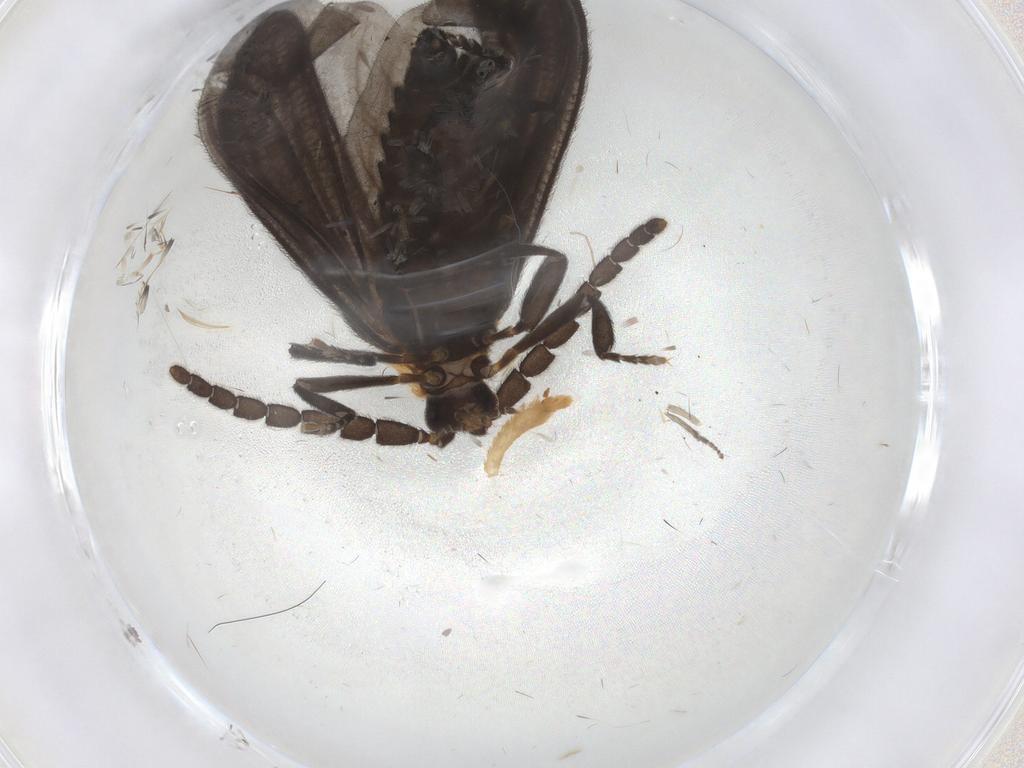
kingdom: Animalia
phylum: Arthropoda
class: Insecta
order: Coleoptera
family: Lycidae
